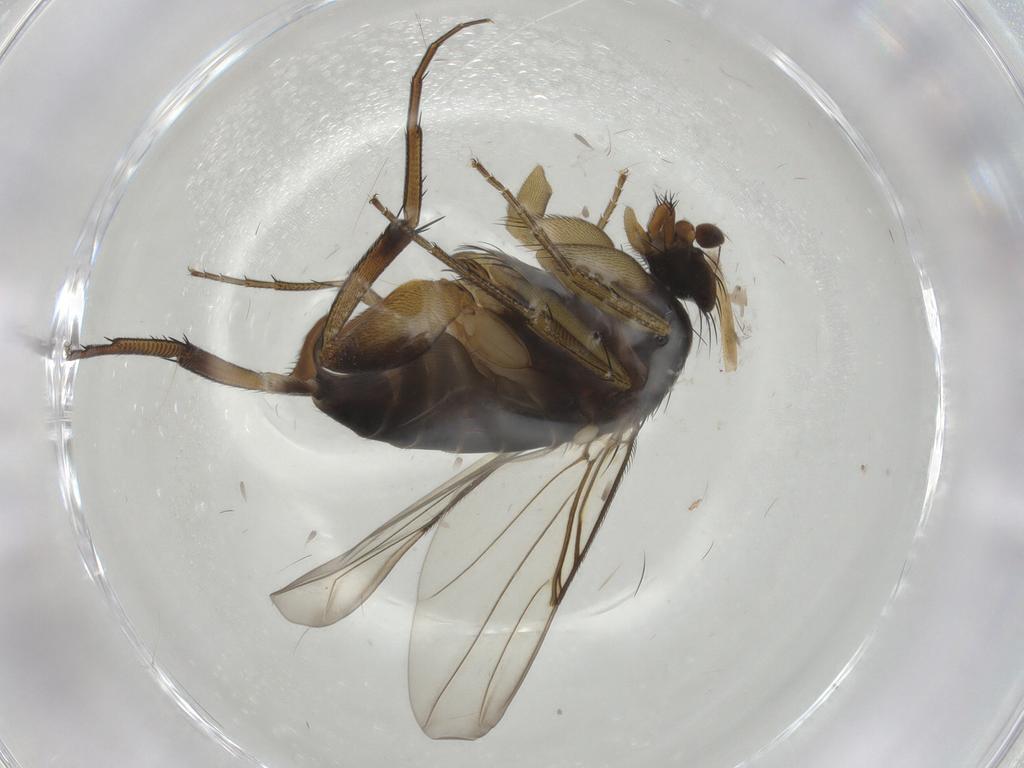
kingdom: Animalia
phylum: Arthropoda
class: Insecta
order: Diptera
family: Phoridae
